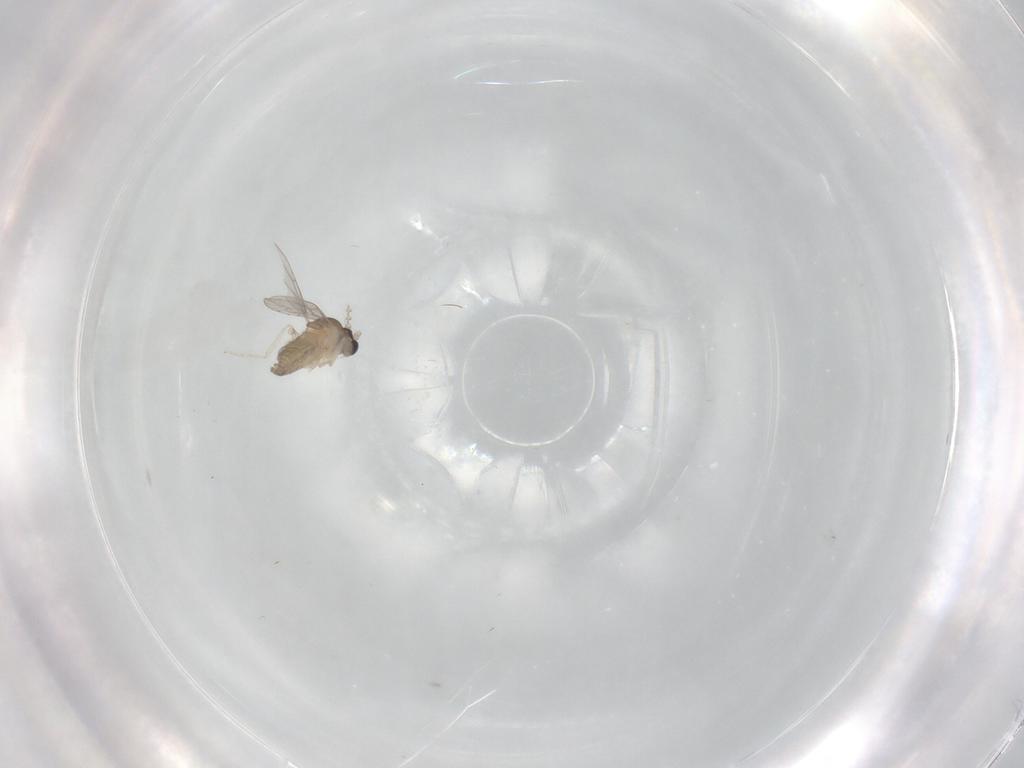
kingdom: Animalia
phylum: Arthropoda
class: Insecta
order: Diptera
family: Cecidomyiidae
